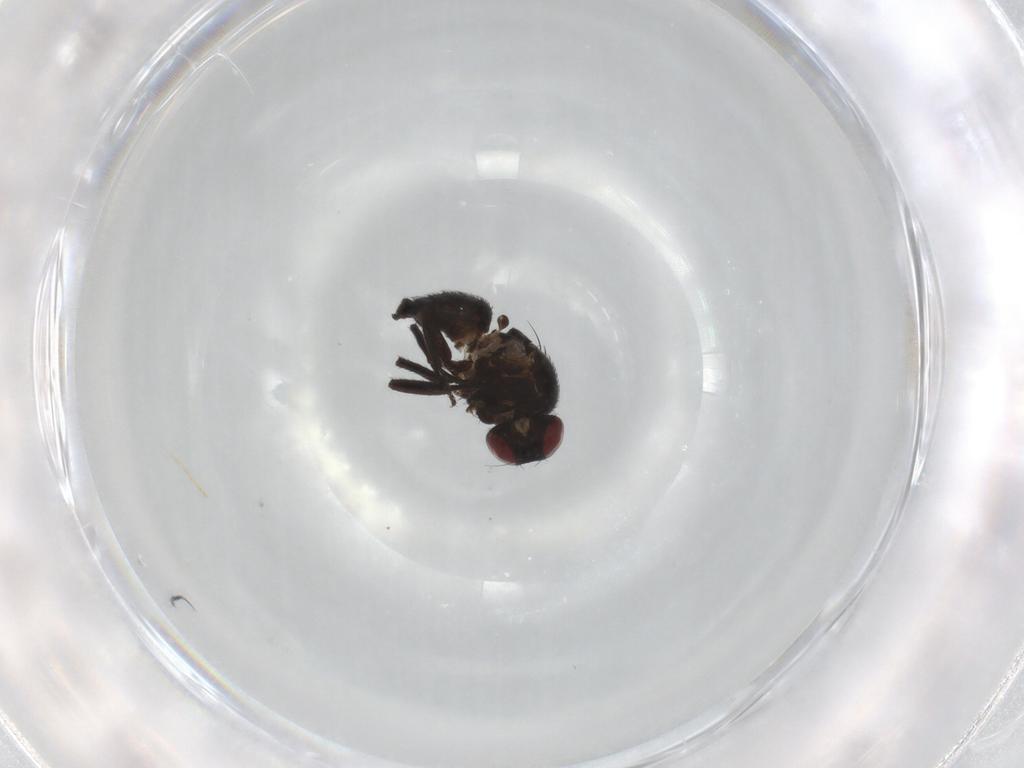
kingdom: Animalia
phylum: Arthropoda
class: Insecta
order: Diptera
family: Agromyzidae
